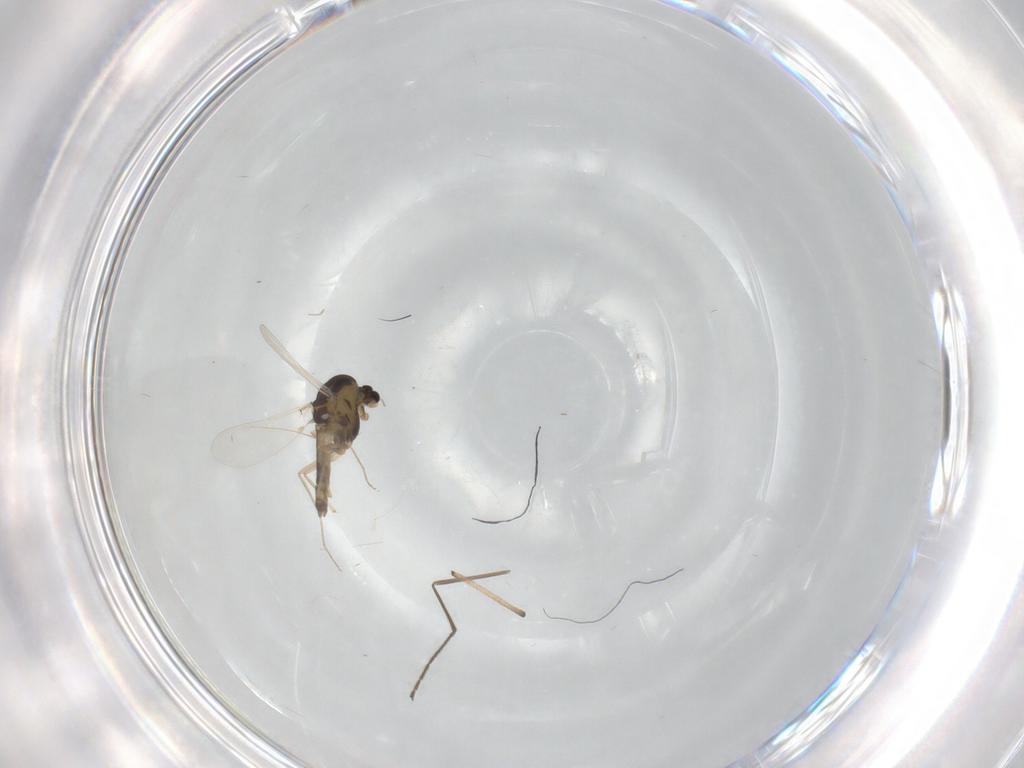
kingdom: Animalia
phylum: Arthropoda
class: Insecta
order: Diptera
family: Chironomidae
